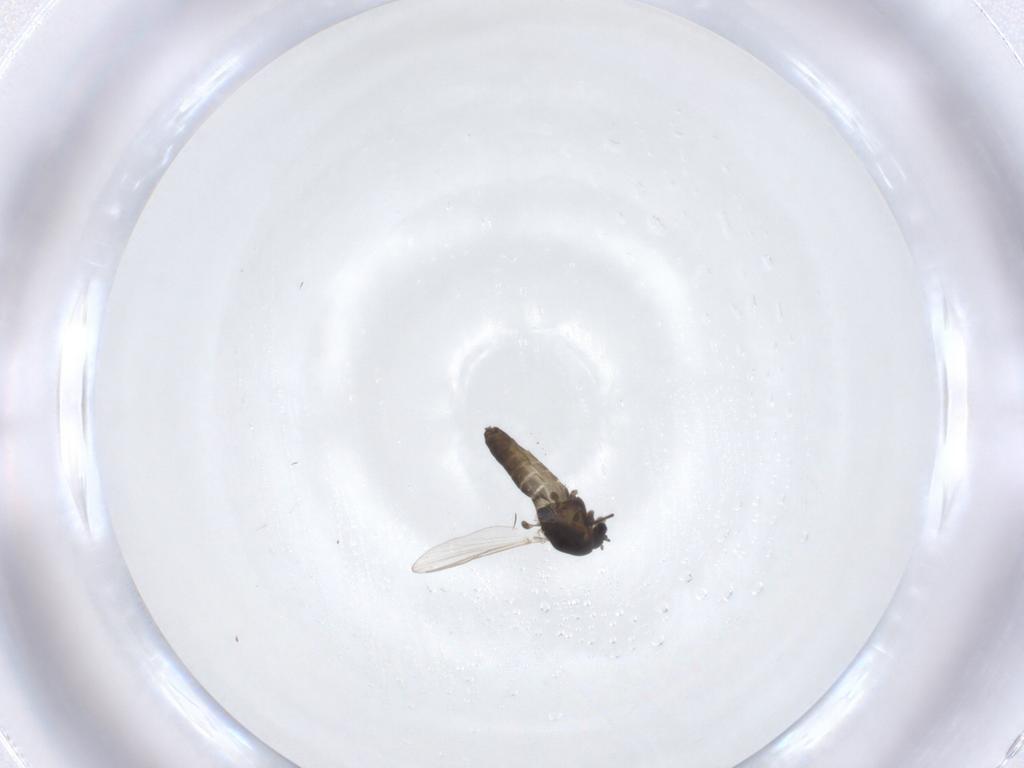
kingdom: Animalia
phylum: Arthropoda
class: Insecta
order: Diptera
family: Chironomidae
